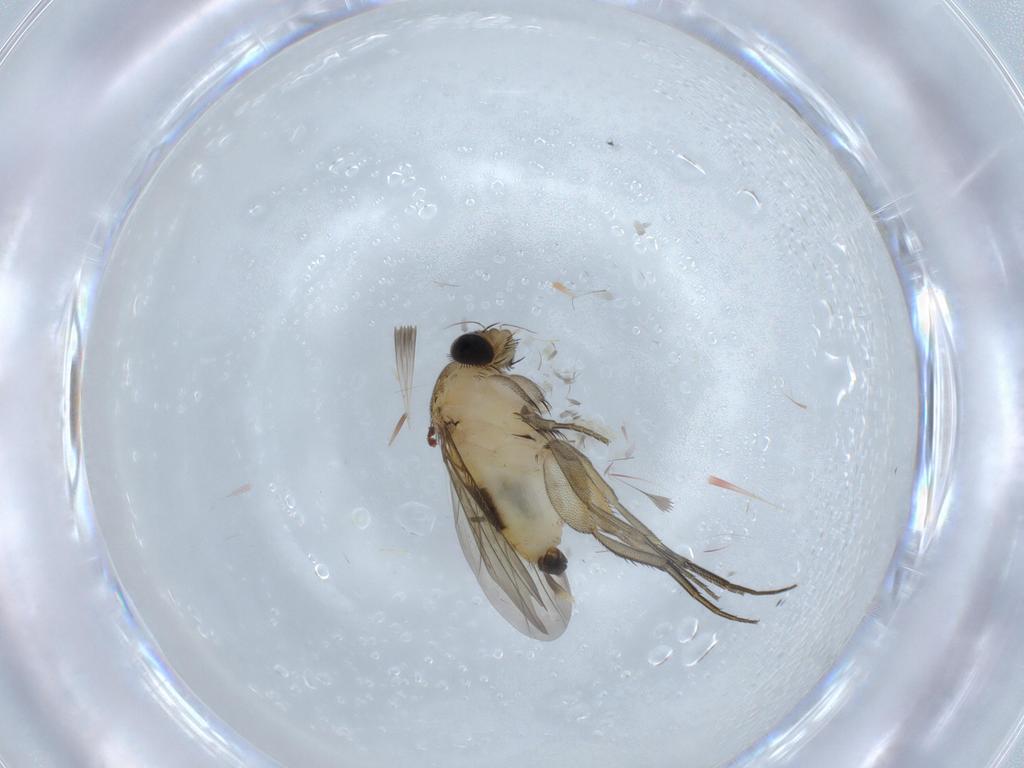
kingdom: Animalia
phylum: Arthropoda
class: Insecta
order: Diptera
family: Phoridae
